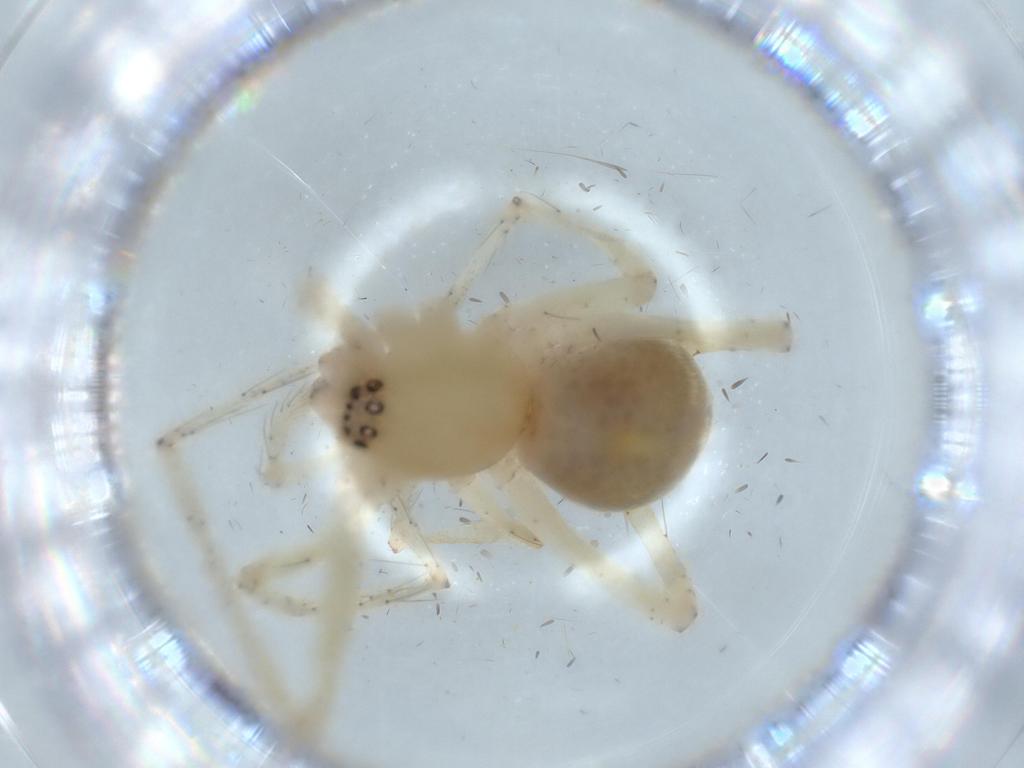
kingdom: Animalia
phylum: Arthropoda
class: Arachnida
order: Araneae
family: Anyphaenidae
